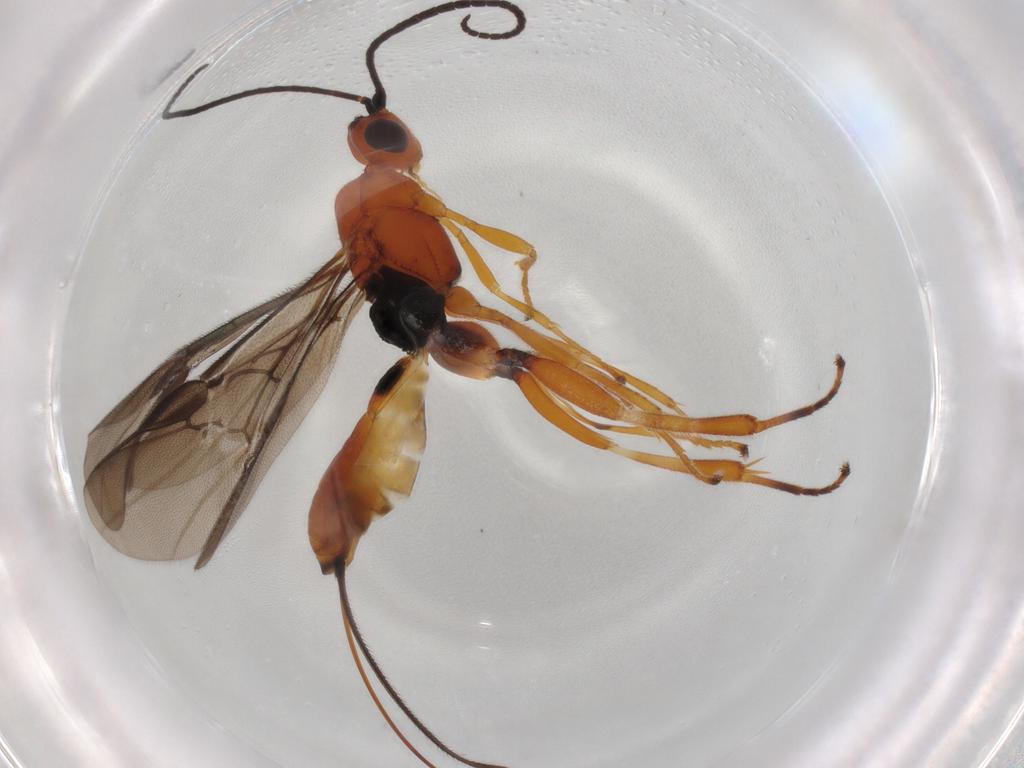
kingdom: Animalia
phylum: Arthropoda
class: Insecta
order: Hymenoptera
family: Braconidae
